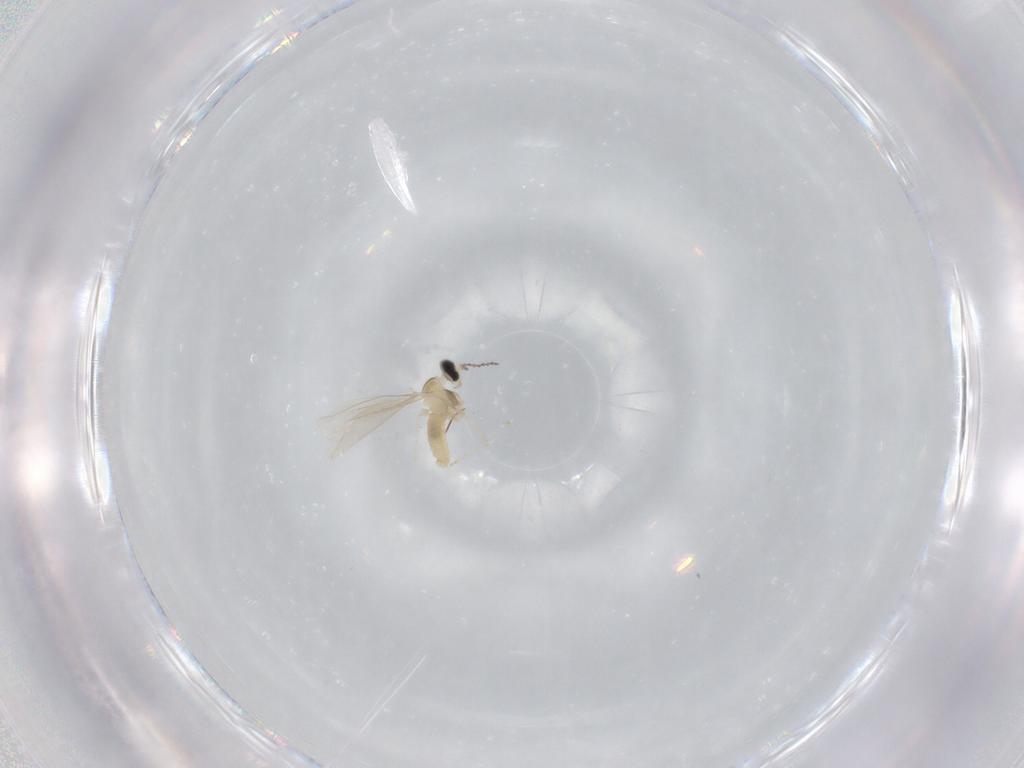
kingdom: Animalia
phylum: Arthropoda
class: Insecta
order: Diptera
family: Cecidomyiidae
